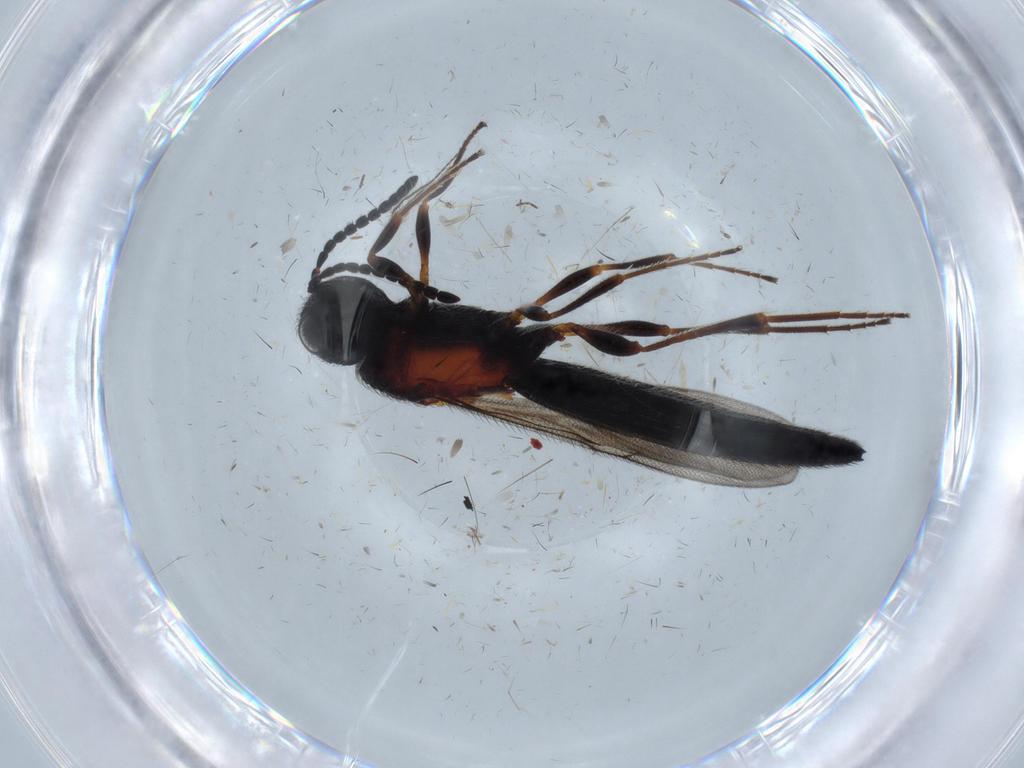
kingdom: Animalia
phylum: Arthropoda
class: Insecta
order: Hymenoptera
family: Scelionidae
